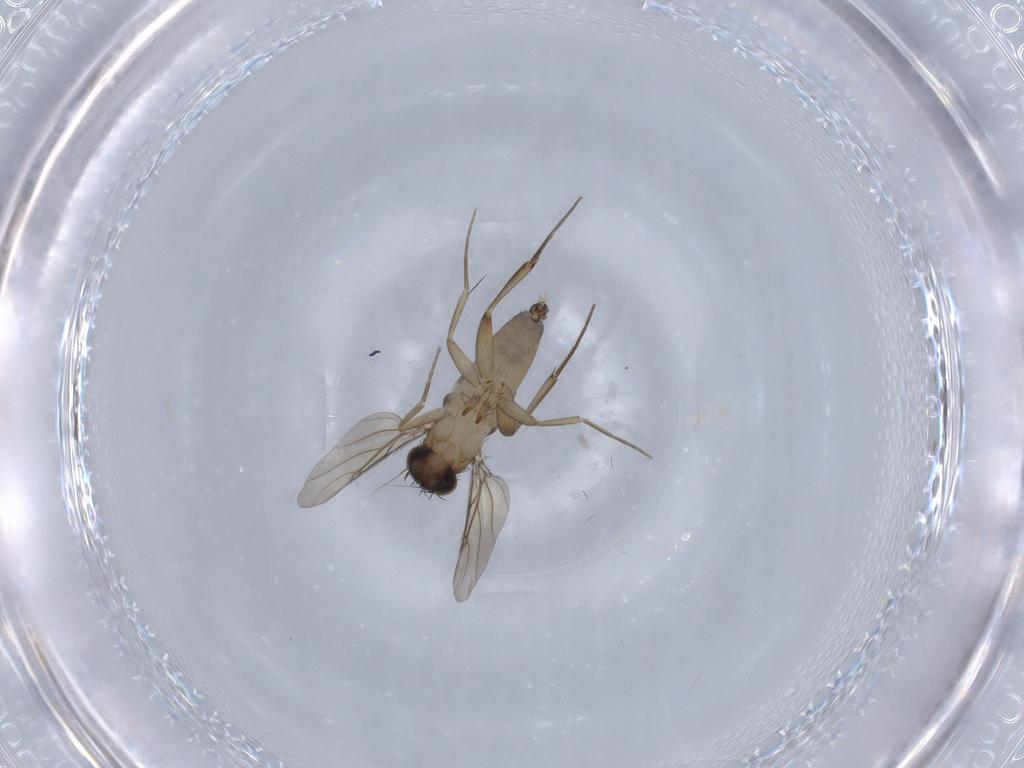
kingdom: Animalia
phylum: Arthropoda
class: Insecta
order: Diptera
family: Phoridae
